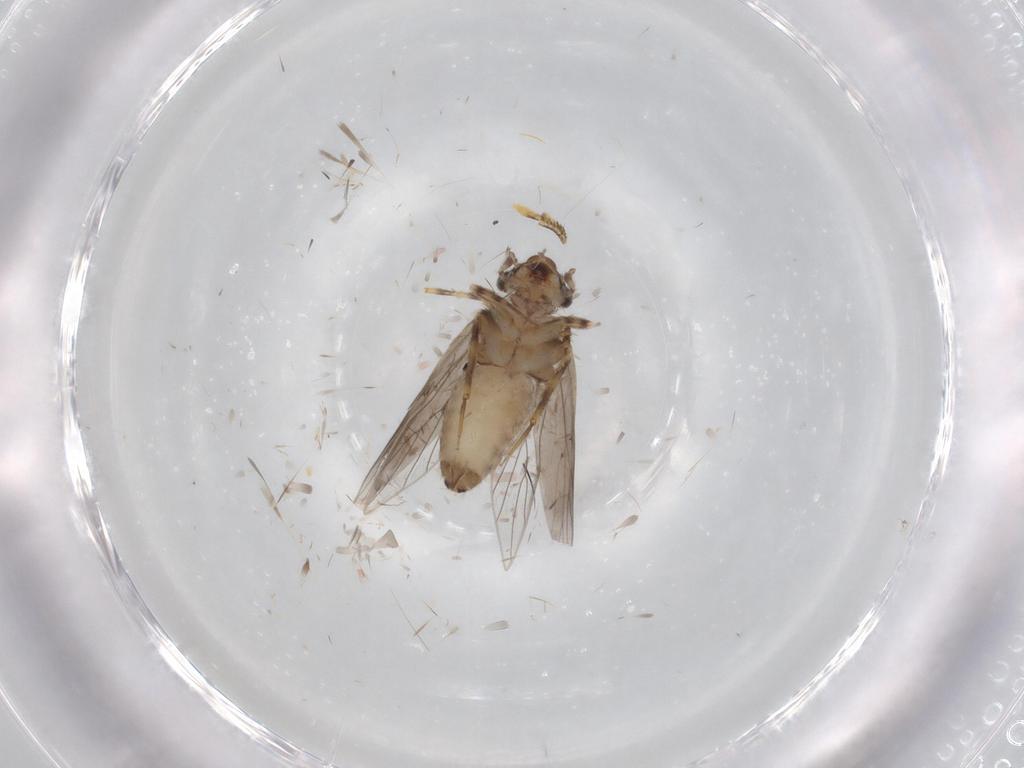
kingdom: Animalia
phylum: Arthropoda
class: Insecta
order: Psocodea
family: Lepidopsocidae
